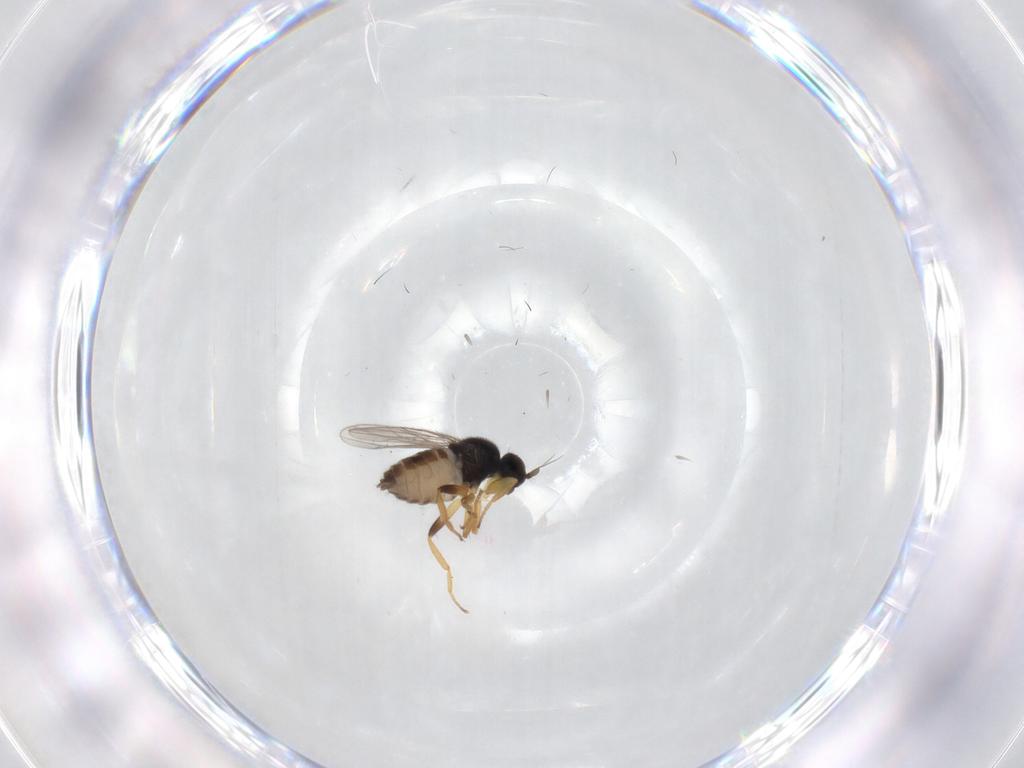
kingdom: Animalia
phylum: Arthropoda
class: Insecta
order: Diptera
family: Hybotidae
